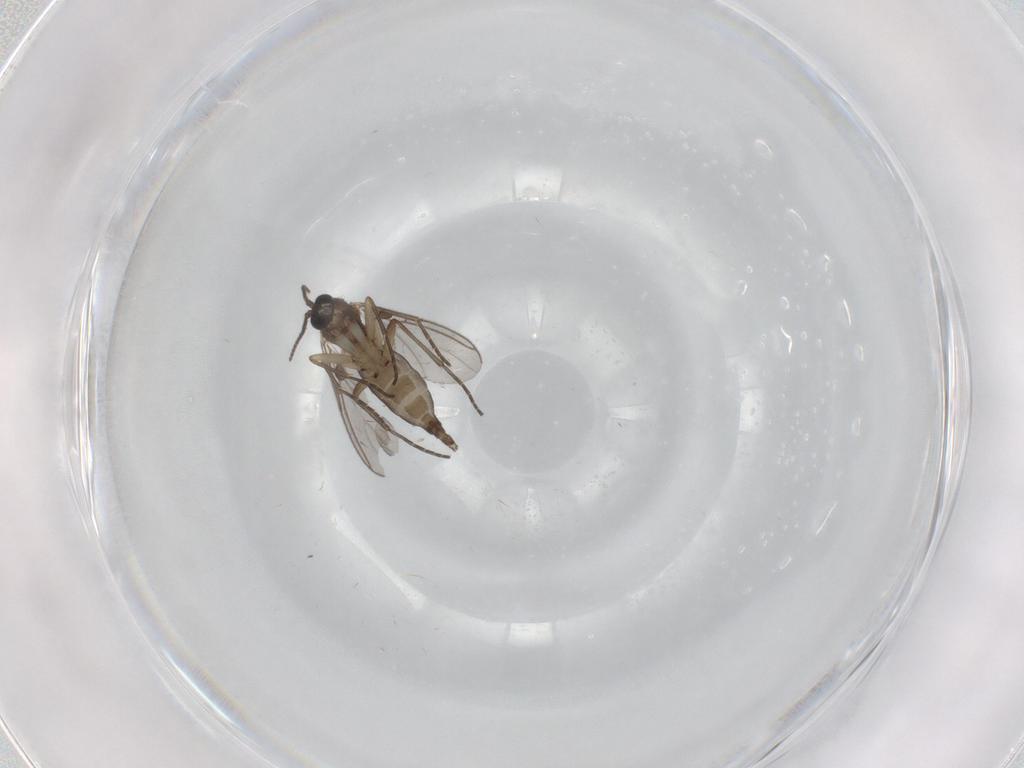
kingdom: Animalia
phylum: Arthropoda
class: Insecta
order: Diptera
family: Sciaridae
